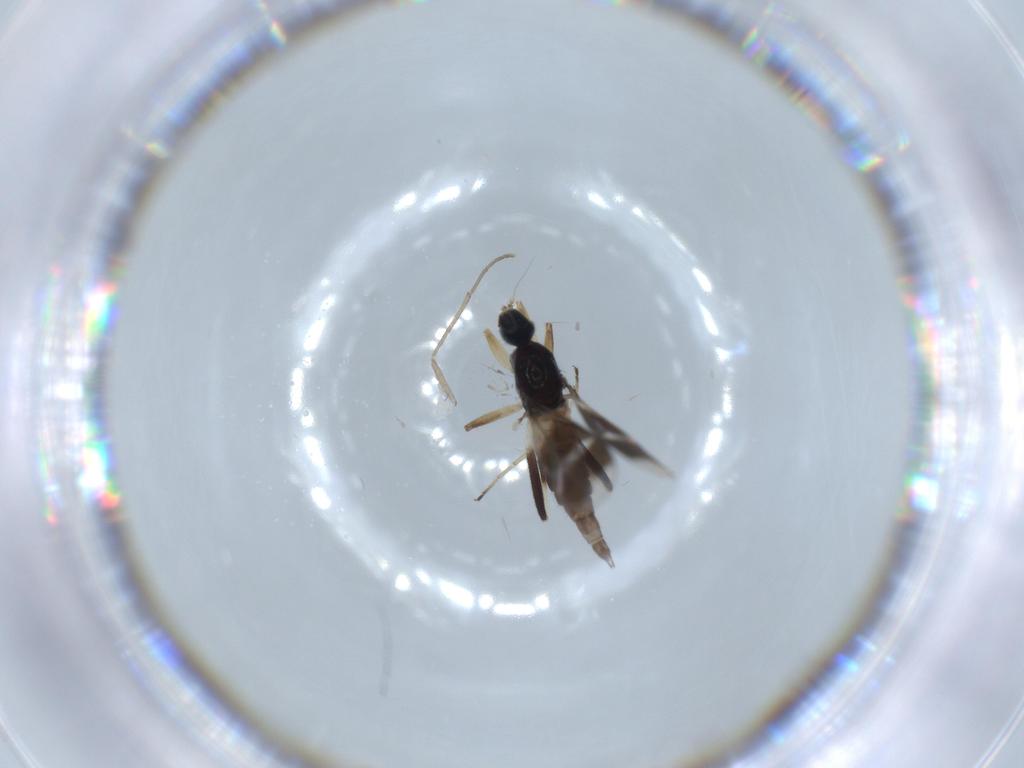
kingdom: Animalia
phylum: Arthropoda
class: Insecta
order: Diptera
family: Hybotidae
